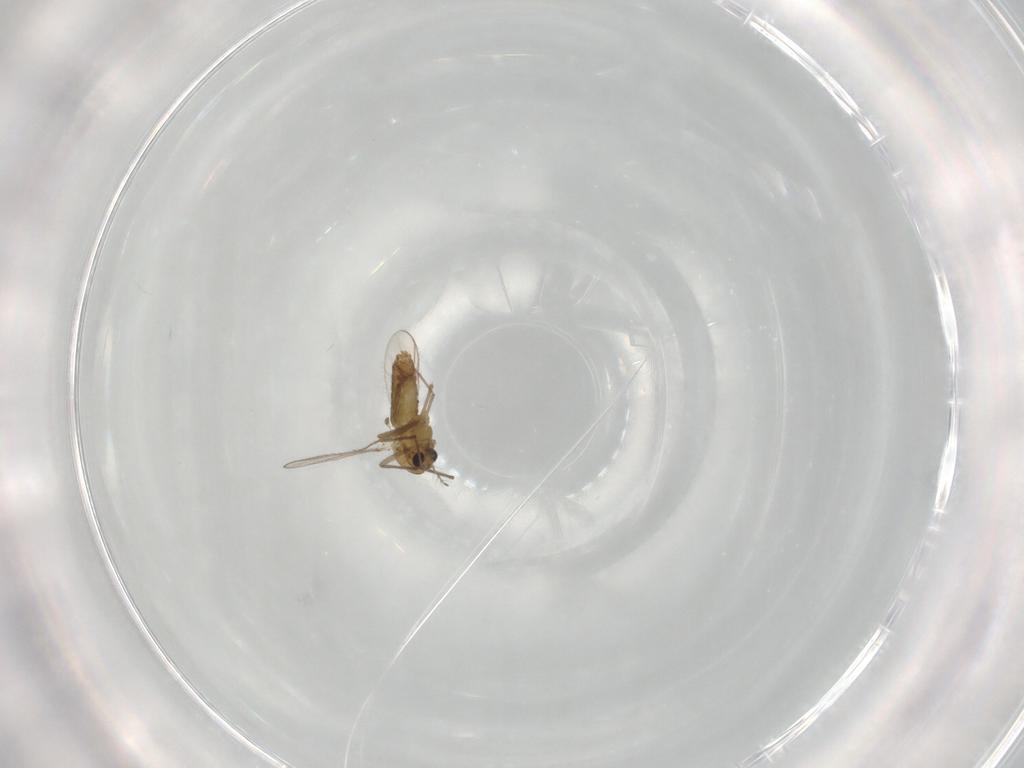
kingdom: Animalia
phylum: Arthropoda
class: Insecta
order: Diptera
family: Chironomidae
